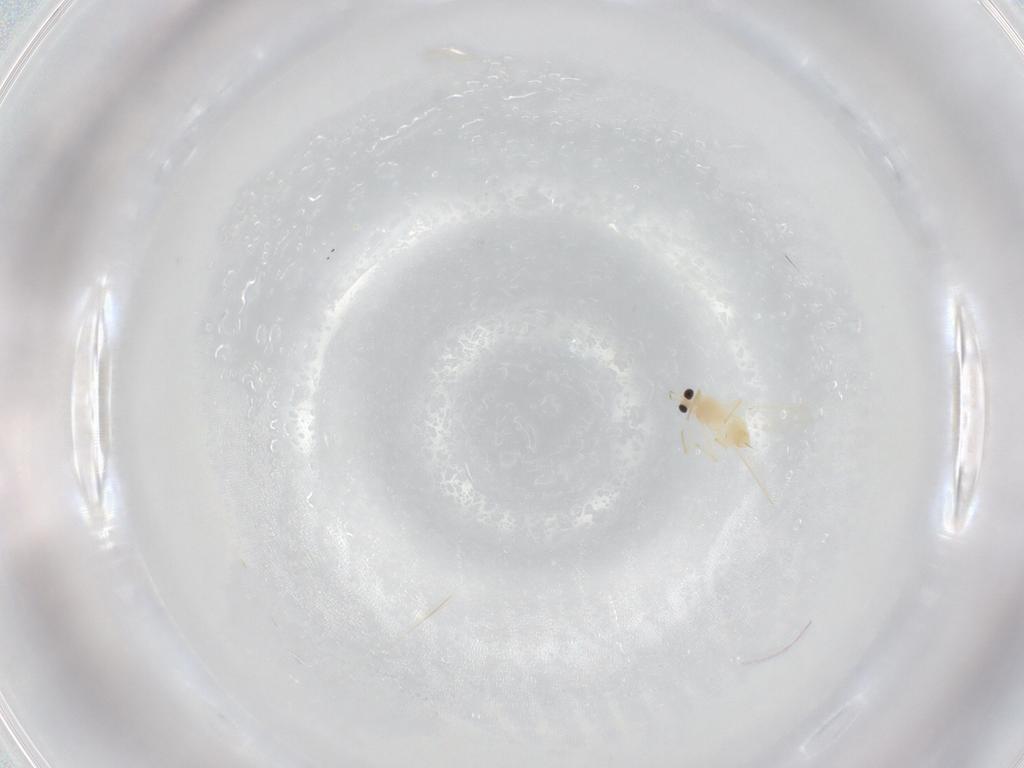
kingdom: Animalia
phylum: Arthropoda
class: Insecta
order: Diptera
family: Chironomidae
